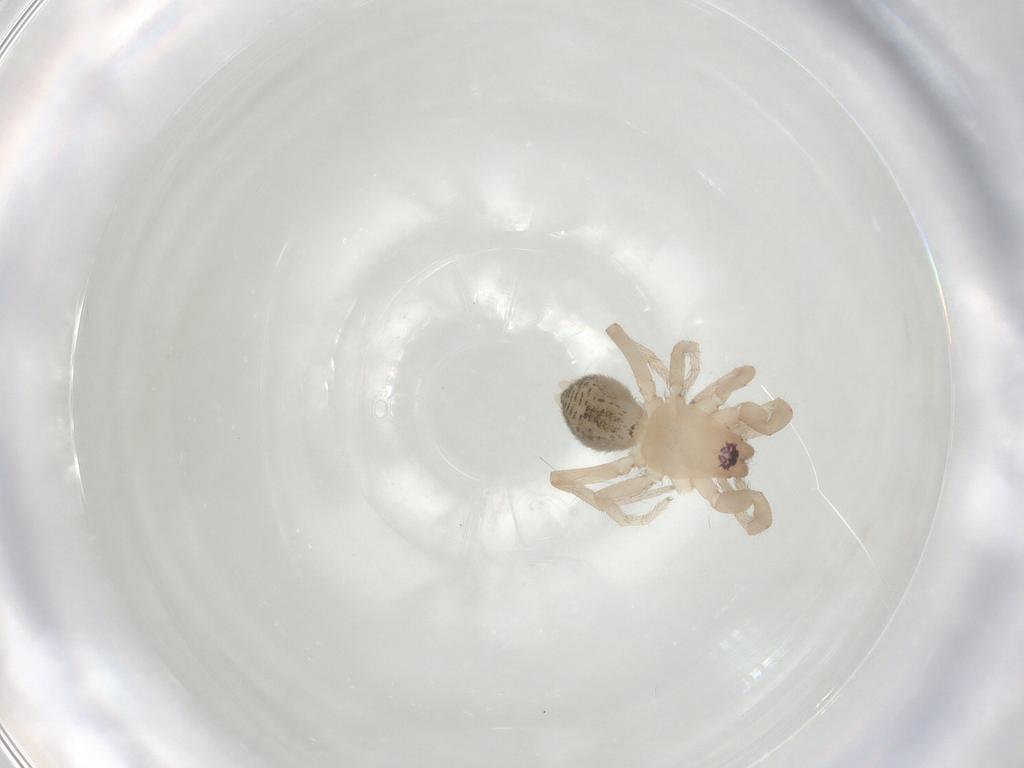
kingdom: Animalia
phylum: Arthropoda
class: Arachnida
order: Araneae
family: Gnaphosidae
